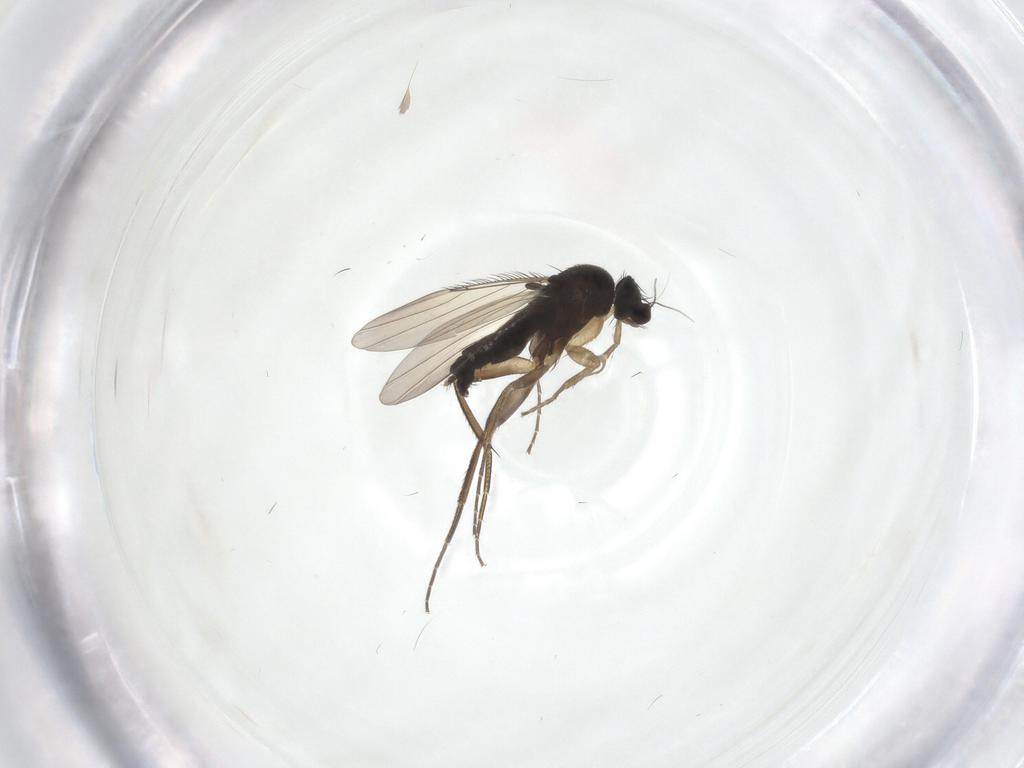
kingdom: Animalia
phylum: Arthropoda
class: Insecta
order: Diptera
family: Phoridae
